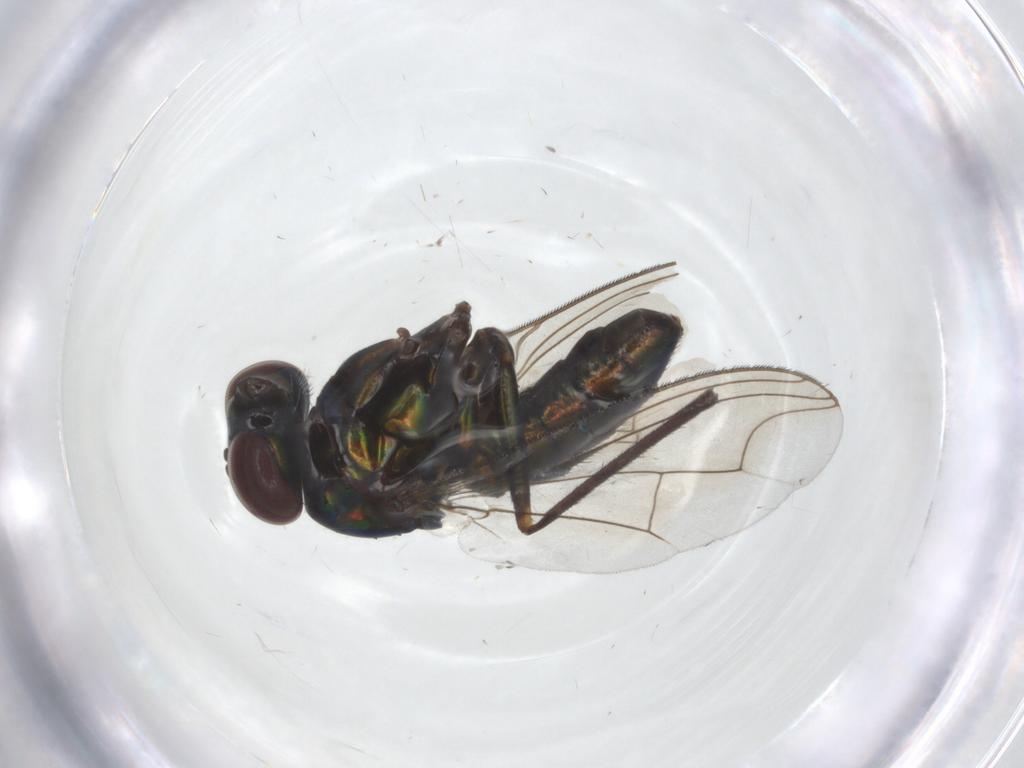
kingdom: Animalia
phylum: Arthropoda
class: Insecta
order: Diptera
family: Dolichopodidae
